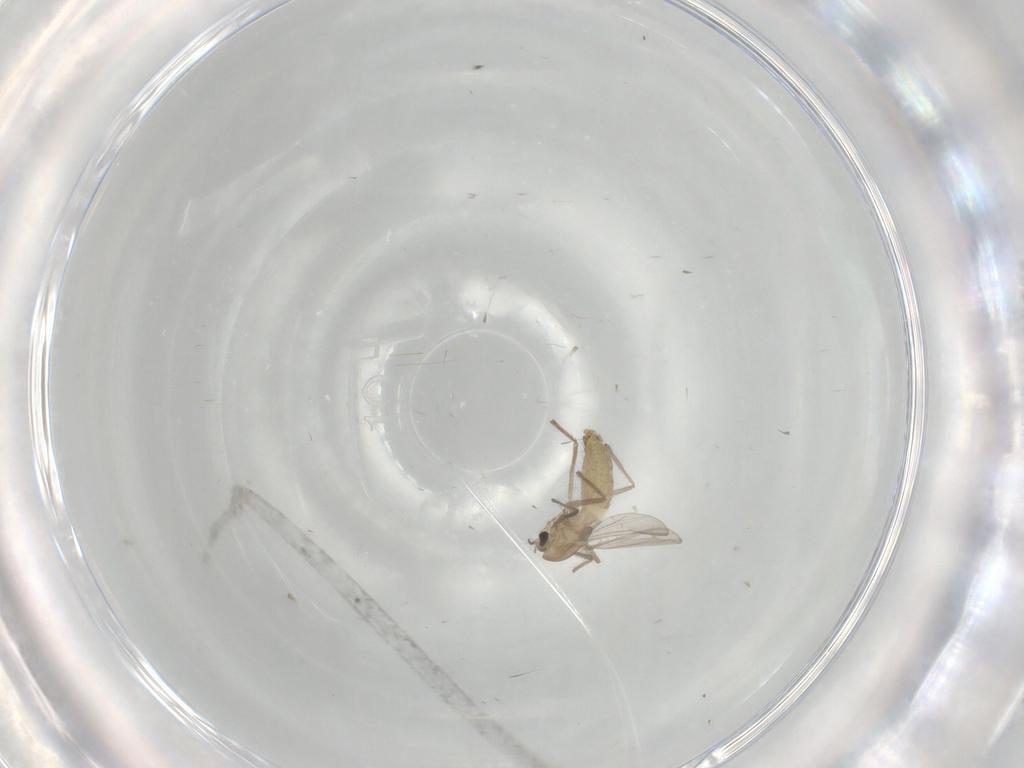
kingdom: Animalia
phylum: Arthropoda
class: Insecta
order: Diptera
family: Chironomidae
